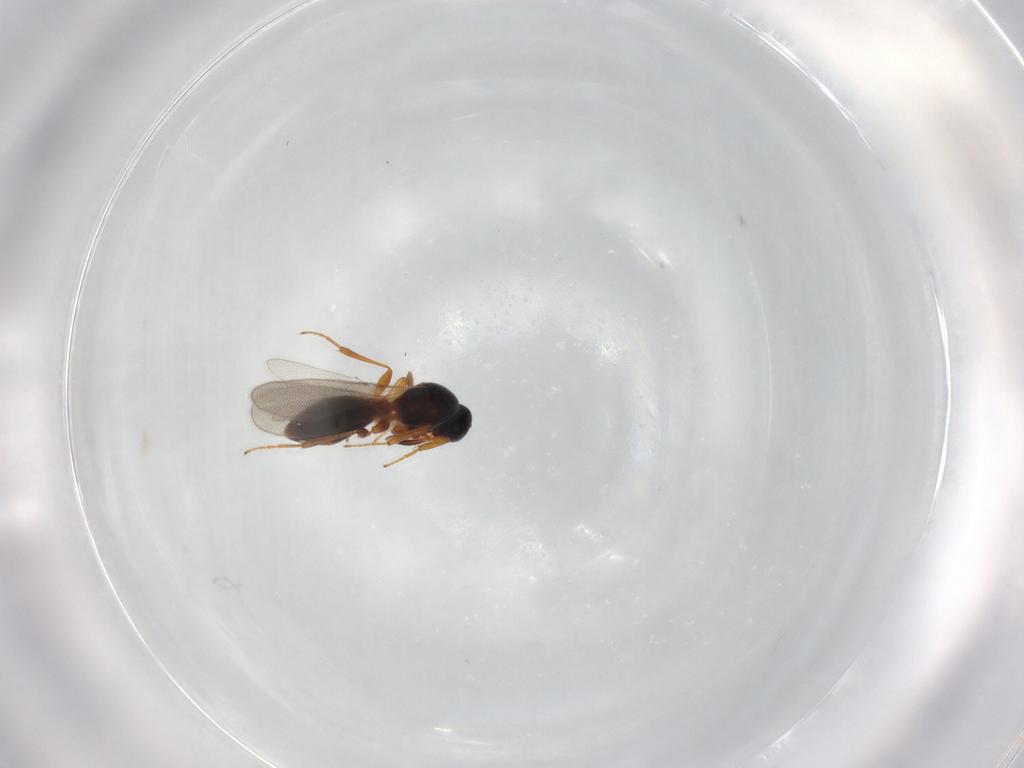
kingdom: Animalia
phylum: Arthropoda
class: Insecta
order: Hymenoptera
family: Platygastridae
